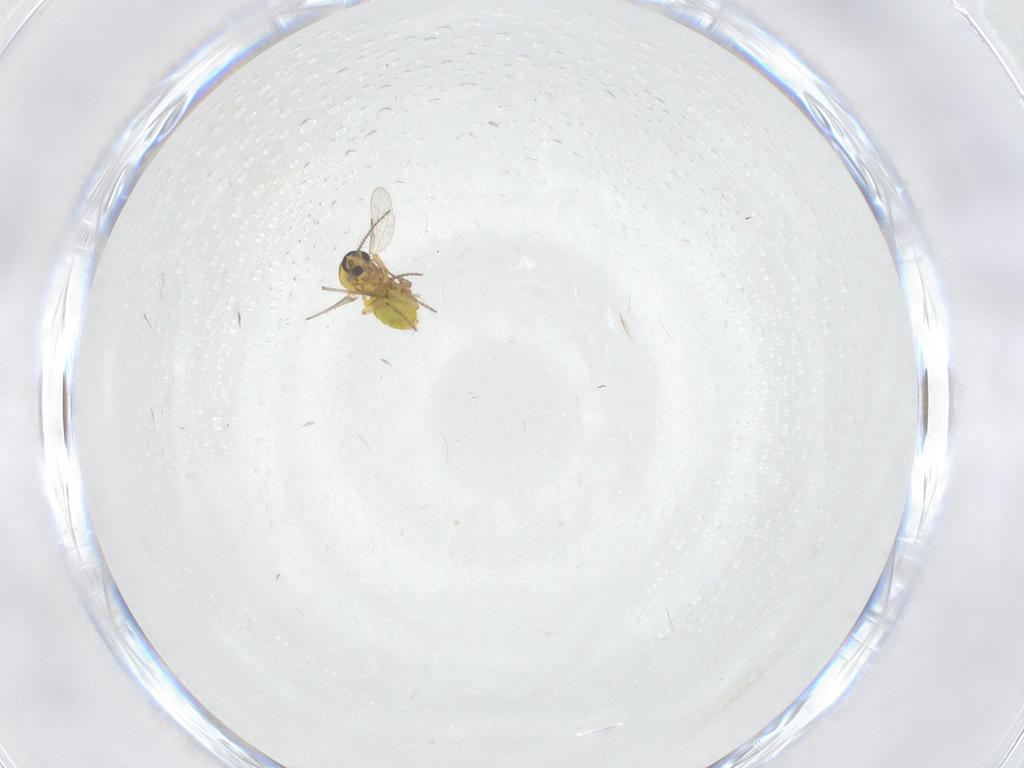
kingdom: Animalia
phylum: Arthropoda
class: Insecta
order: Diptera
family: Ceratopogonidae
